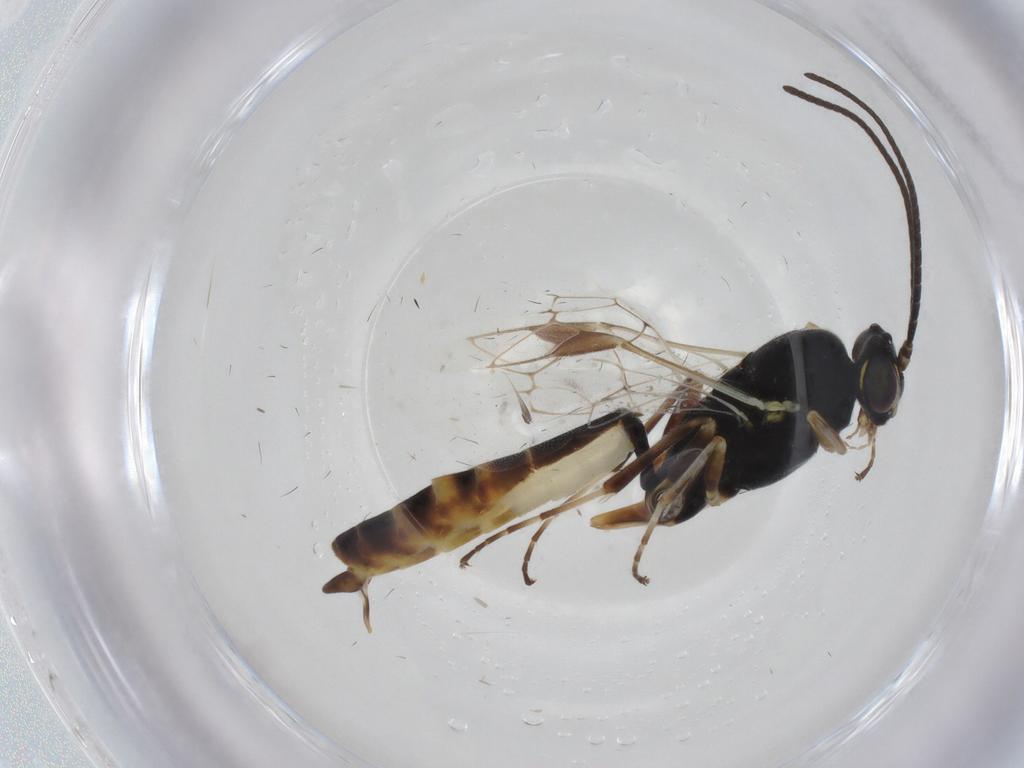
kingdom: Animalia
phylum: Arthropoda
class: Insecta
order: Hymenoptera
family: Ichneumonidae
